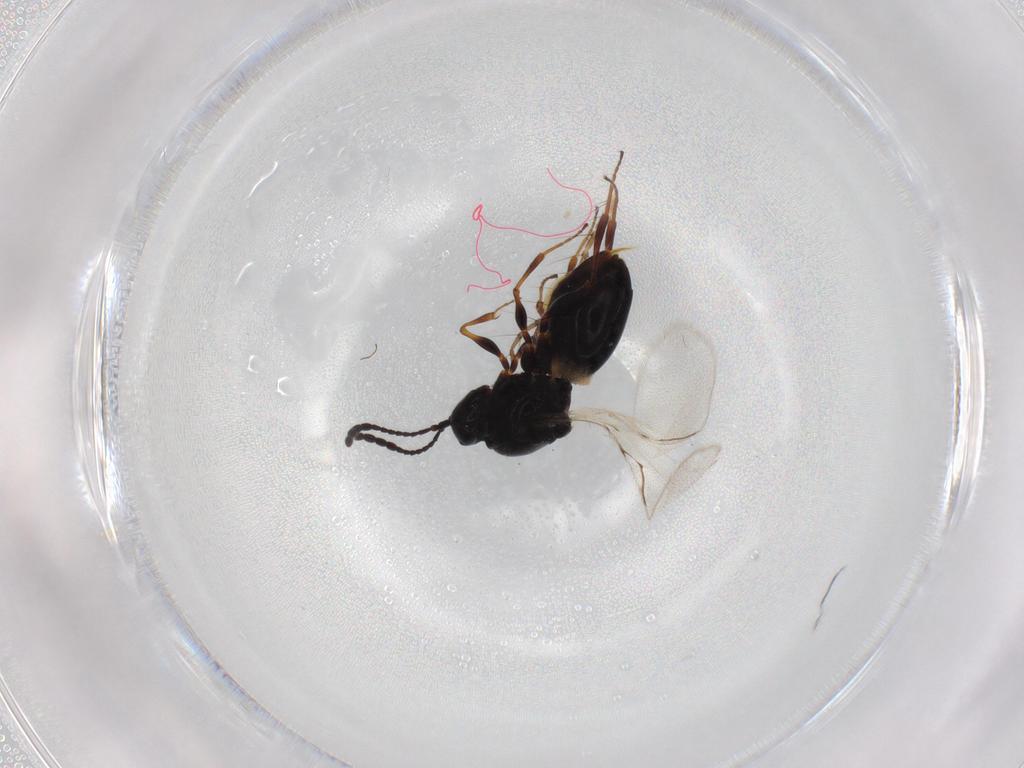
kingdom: Animalia
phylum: Arthropoda
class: Insecta
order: Hymenoptera
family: Figitidae
